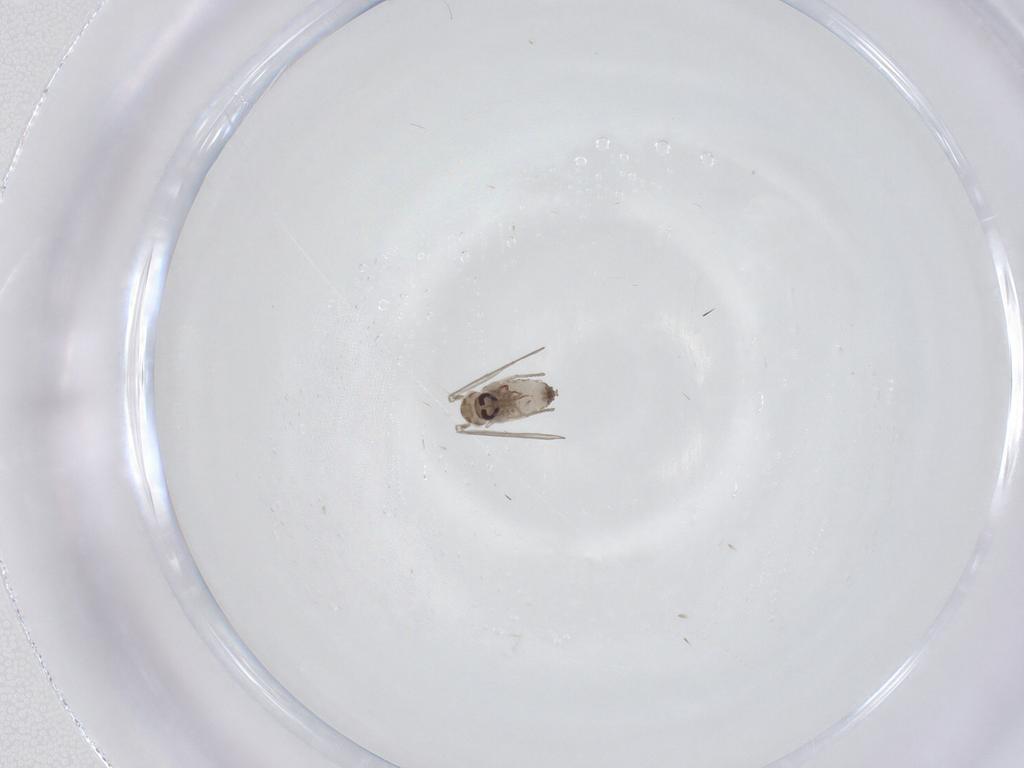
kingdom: Animalia
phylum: Arthropoda
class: Insecta
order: Diptera
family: Psychodidae
